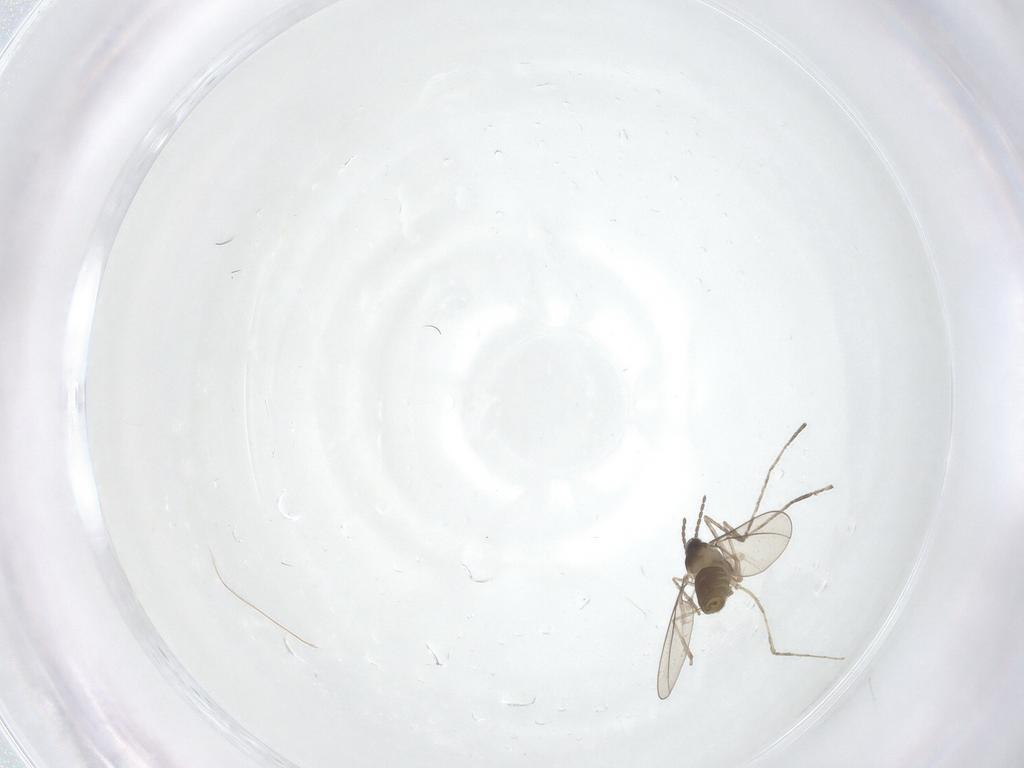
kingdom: Animalia
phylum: Arthropoda
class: Insecta
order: Diptera
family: Cecidomyiidae
